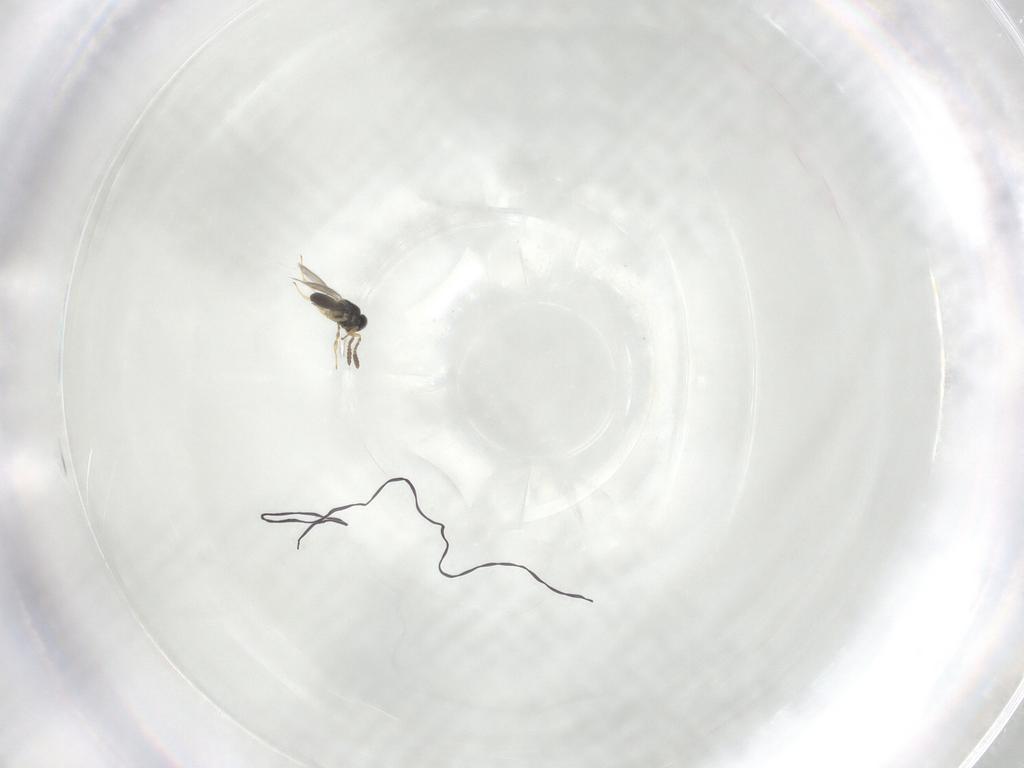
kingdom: Animalia
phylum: Arthropoda
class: Insecta
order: Hymenoptera
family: Scelionidae
